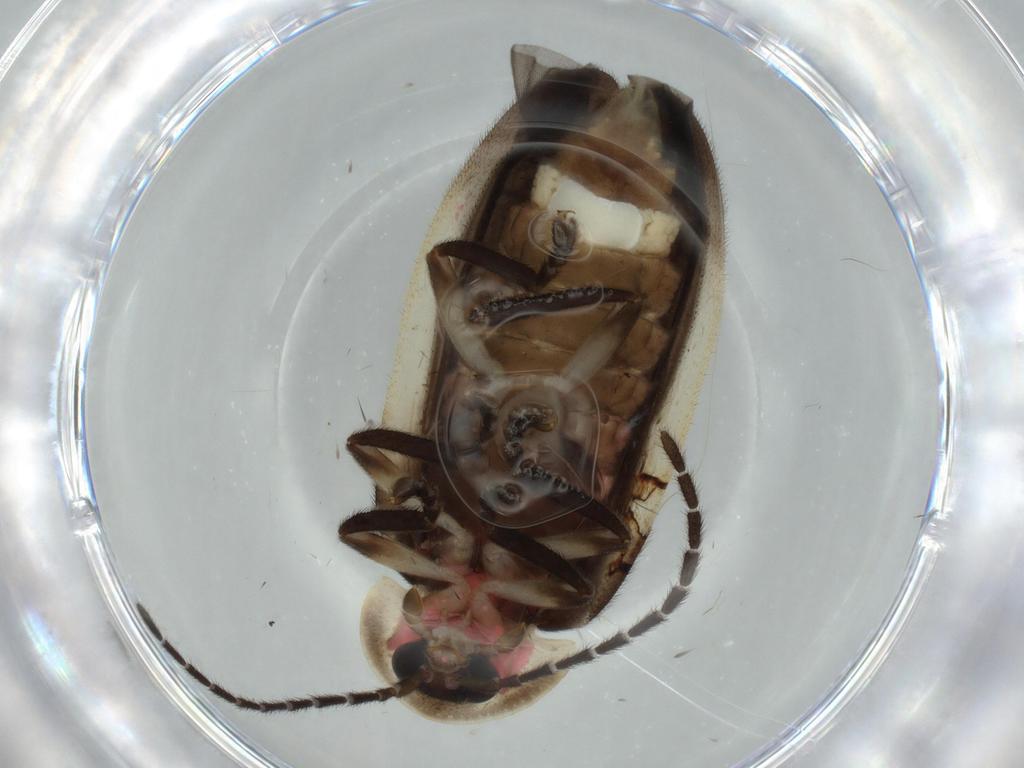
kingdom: Animalia
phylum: Arthropoda
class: Insecta
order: Coleoptera
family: Lampyridae
